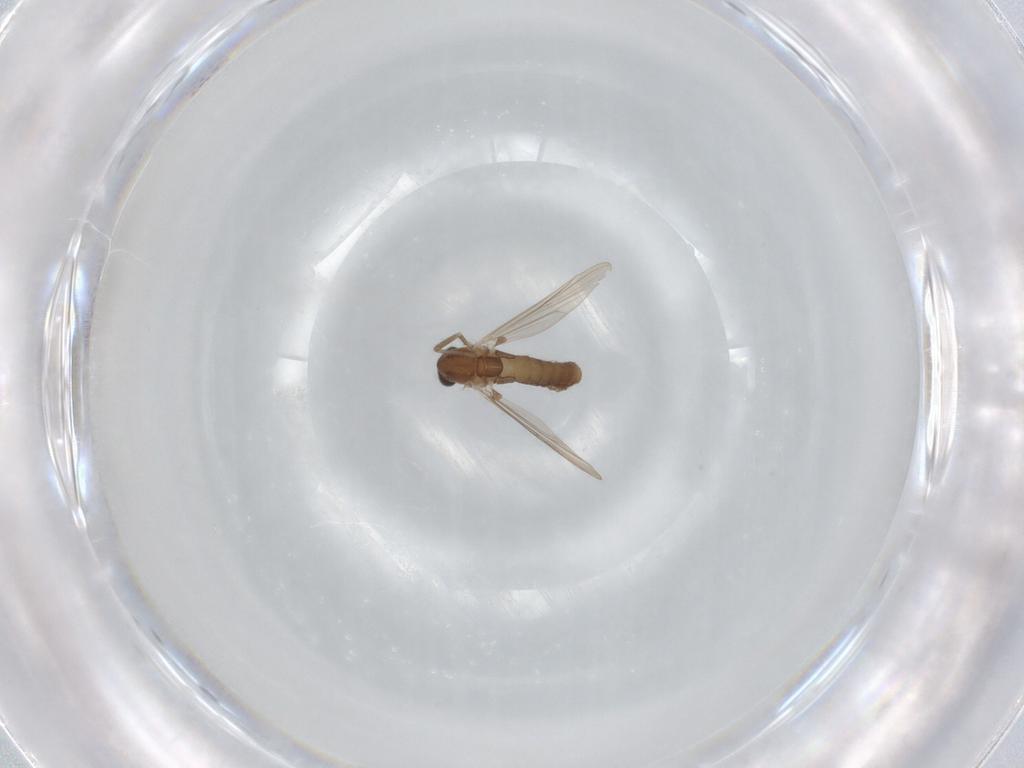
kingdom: Animalia
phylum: Arthropoda
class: Insecta
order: Diptera
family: Chironomidae
